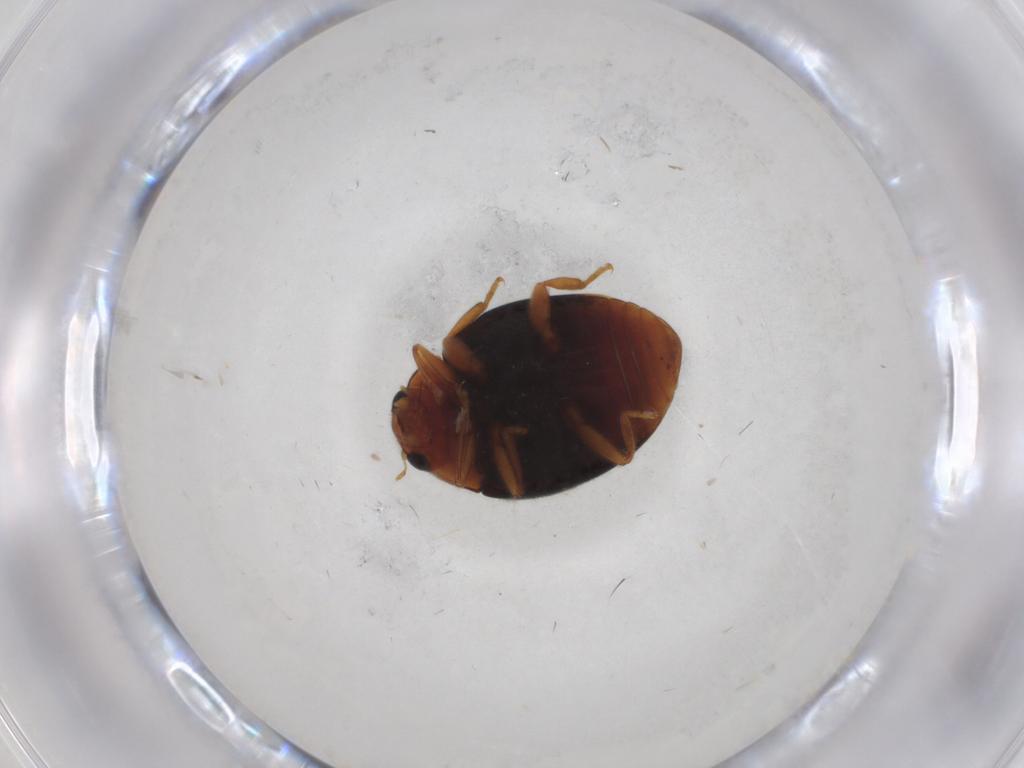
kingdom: Animalia
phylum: Arthropoda
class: Insecta
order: Coleoptera
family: Coccinellidae
